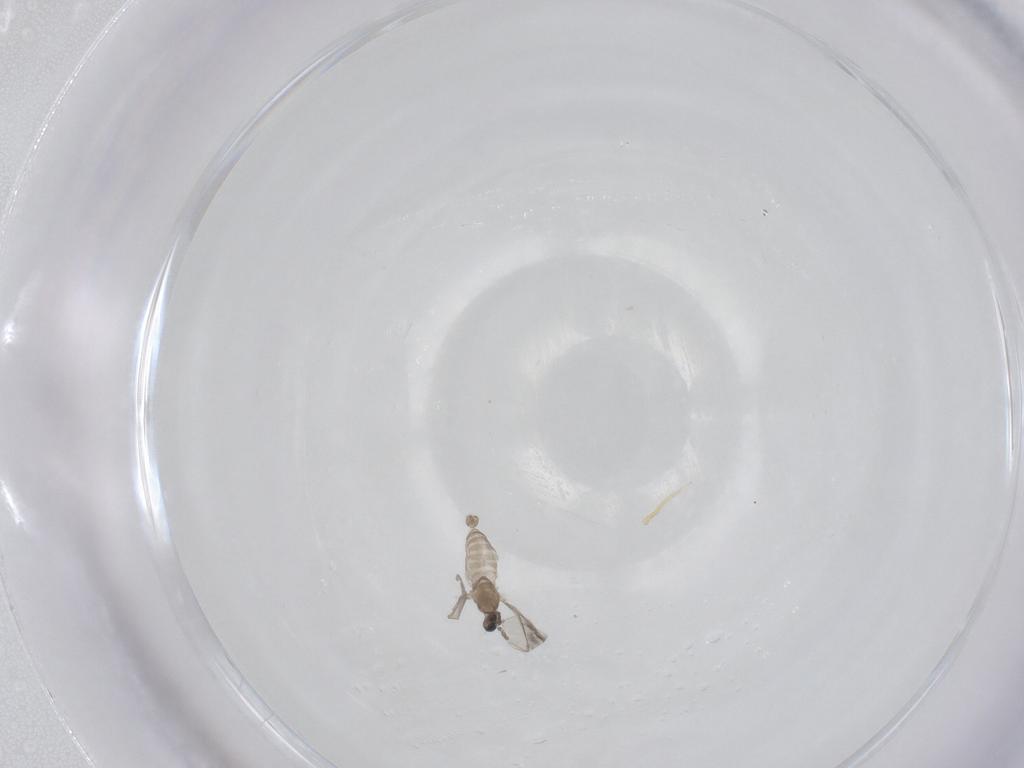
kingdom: Animalia
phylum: Arthropoda
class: Insecta
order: Diptera
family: Cecidomyiidae
